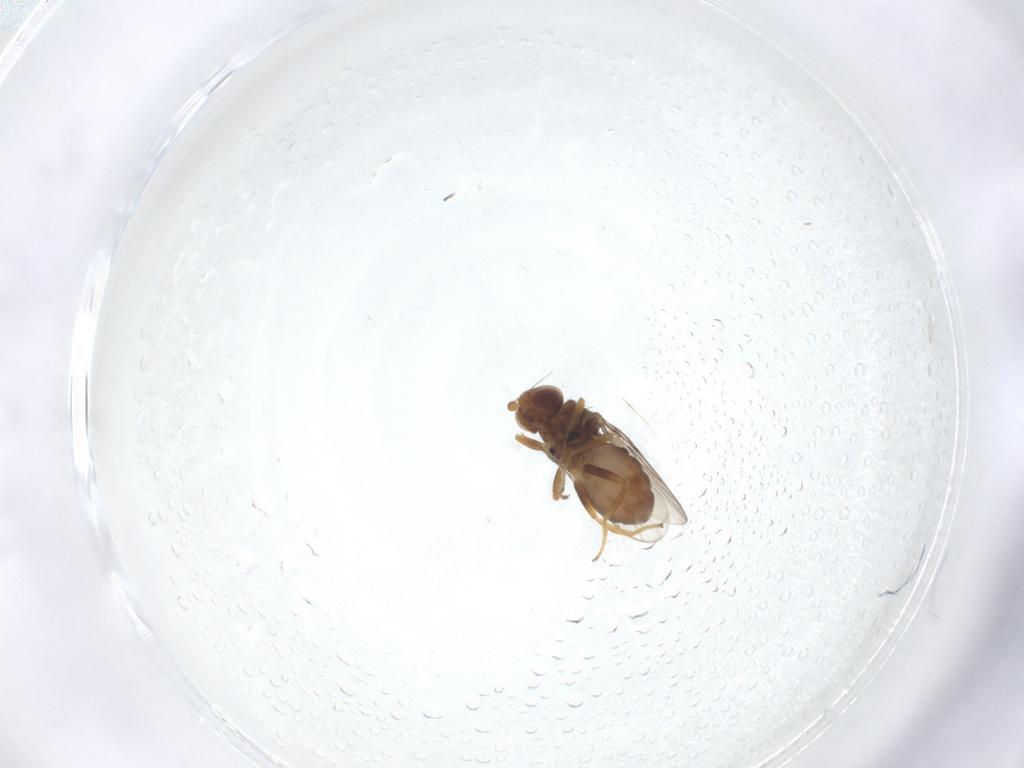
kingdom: Animalia
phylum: Arthropoda
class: Insecta
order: Diptera
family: Chloropidae
